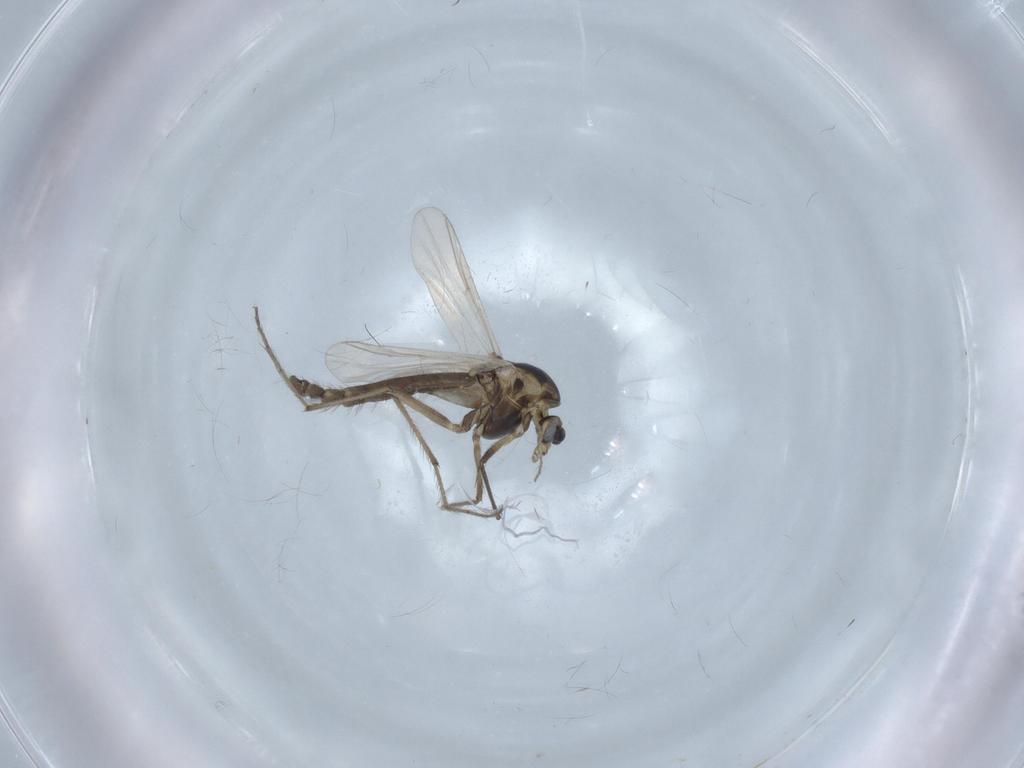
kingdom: Animalia
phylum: Arthropoda
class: Insecta
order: Diptera
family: Chironomidae
